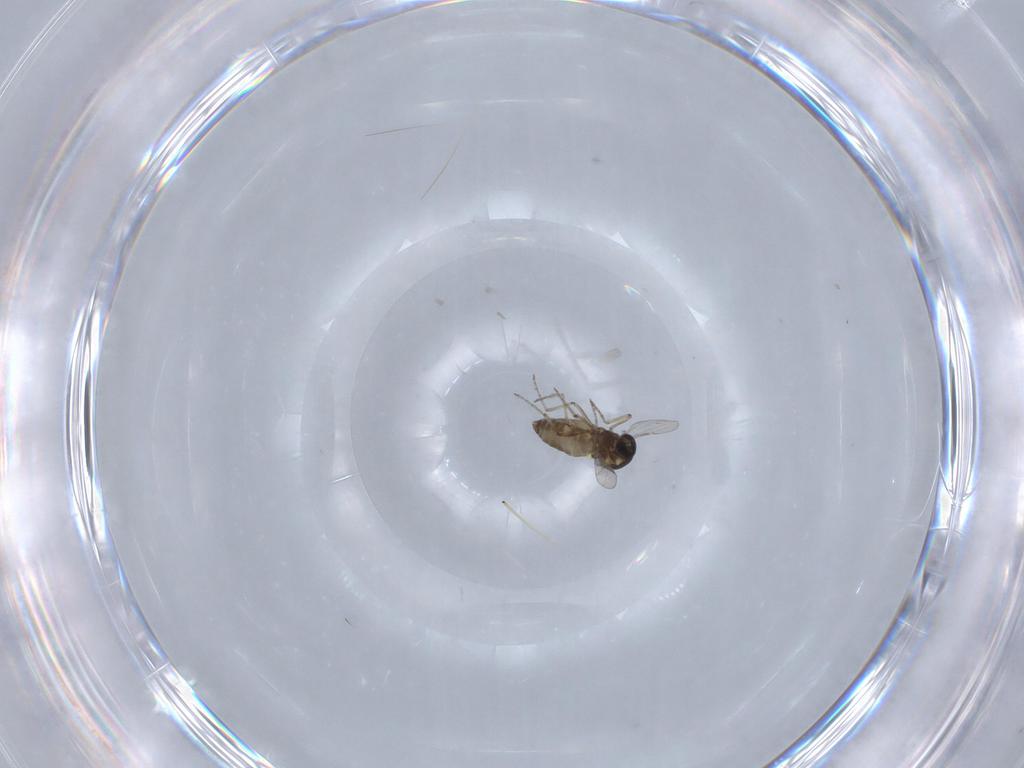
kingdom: Animalia
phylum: Arthropoda
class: Insecta
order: Diptera
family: Ceratopogonidae
